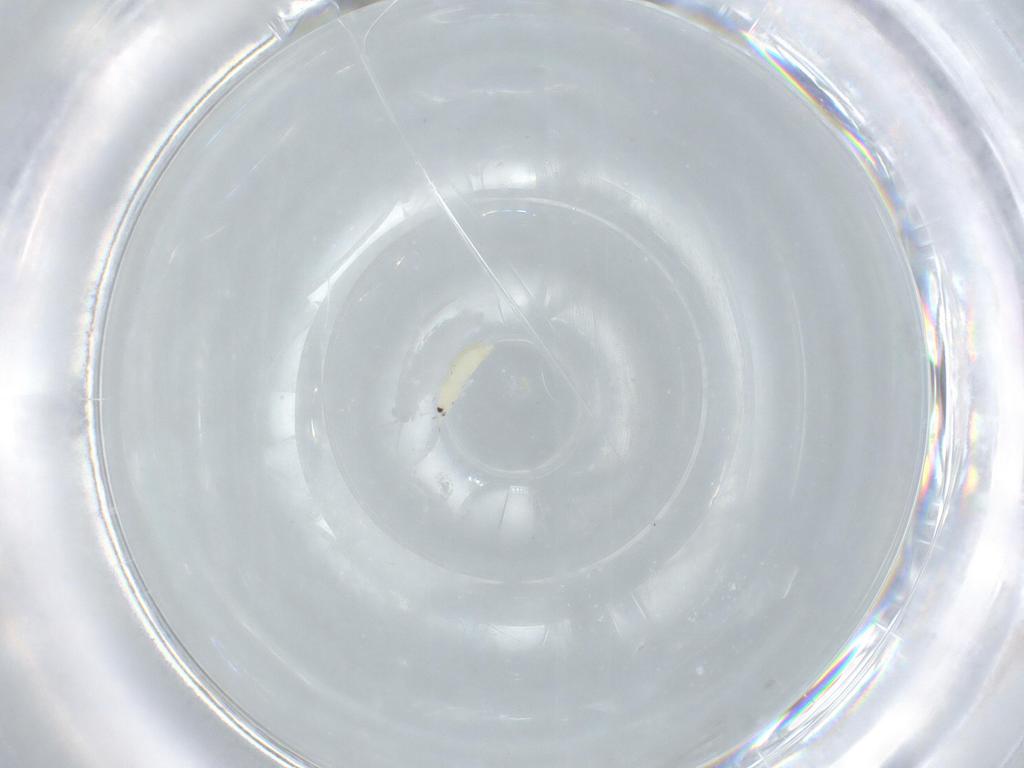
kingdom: Animalia
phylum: Arthropoda
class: Insecta
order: Thysanoptera
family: Thripidae
